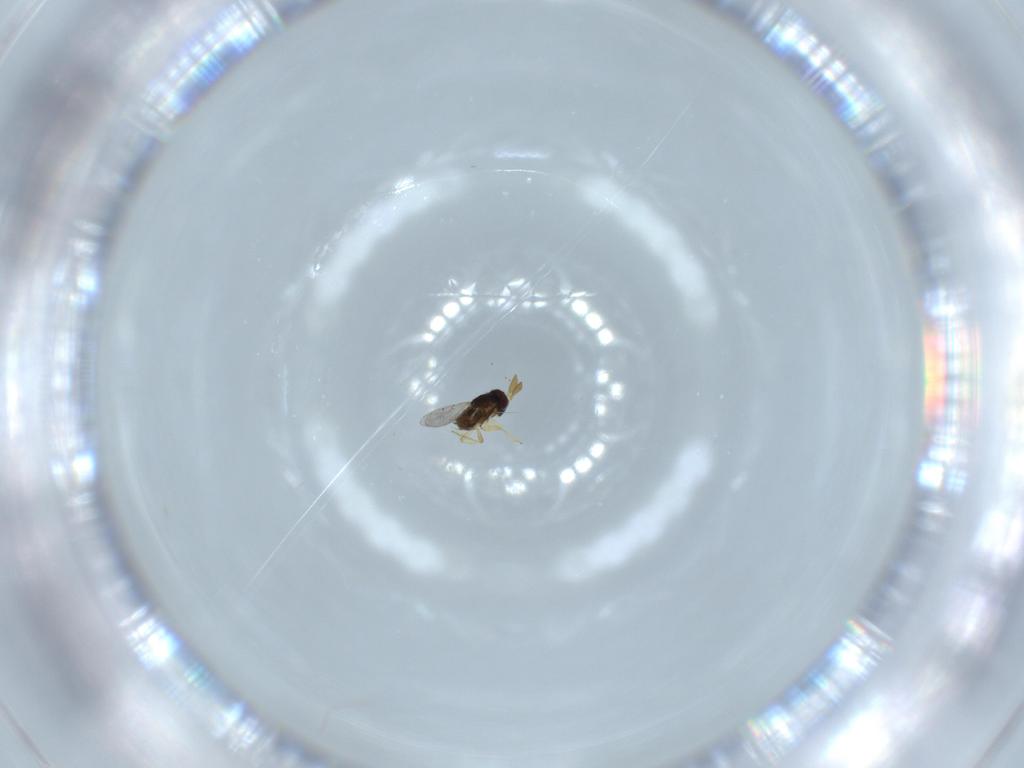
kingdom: Animalia
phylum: Arthropoda
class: Insecta
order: Hymenoptera
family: Encyrtidae
